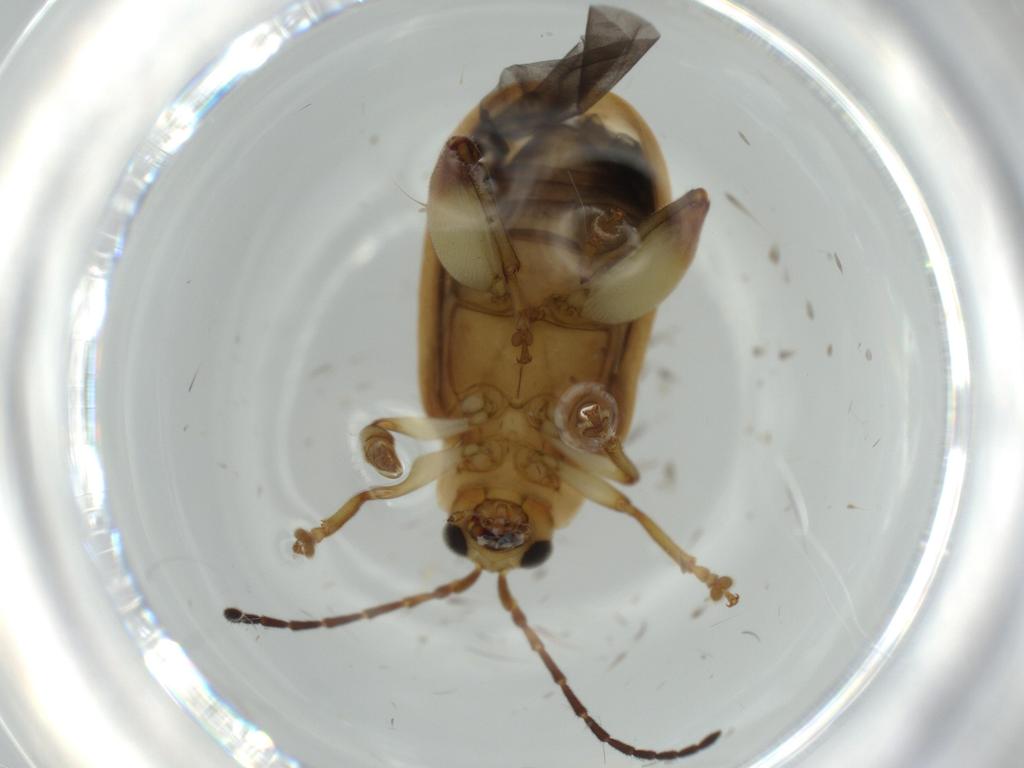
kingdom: Animalia
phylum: Arthropoda
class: Insecta
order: Coleoptera
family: Chrysomelidae
